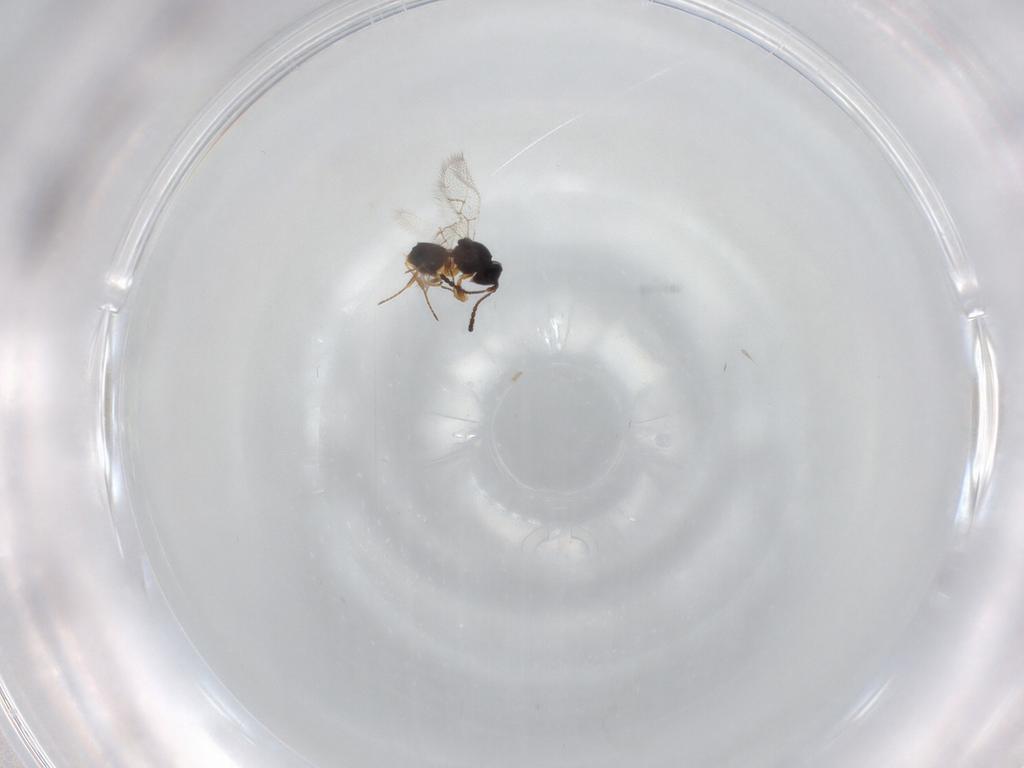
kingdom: Animalia
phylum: Arthropoda
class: Insecta
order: Hymenoptera
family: Figitidae
